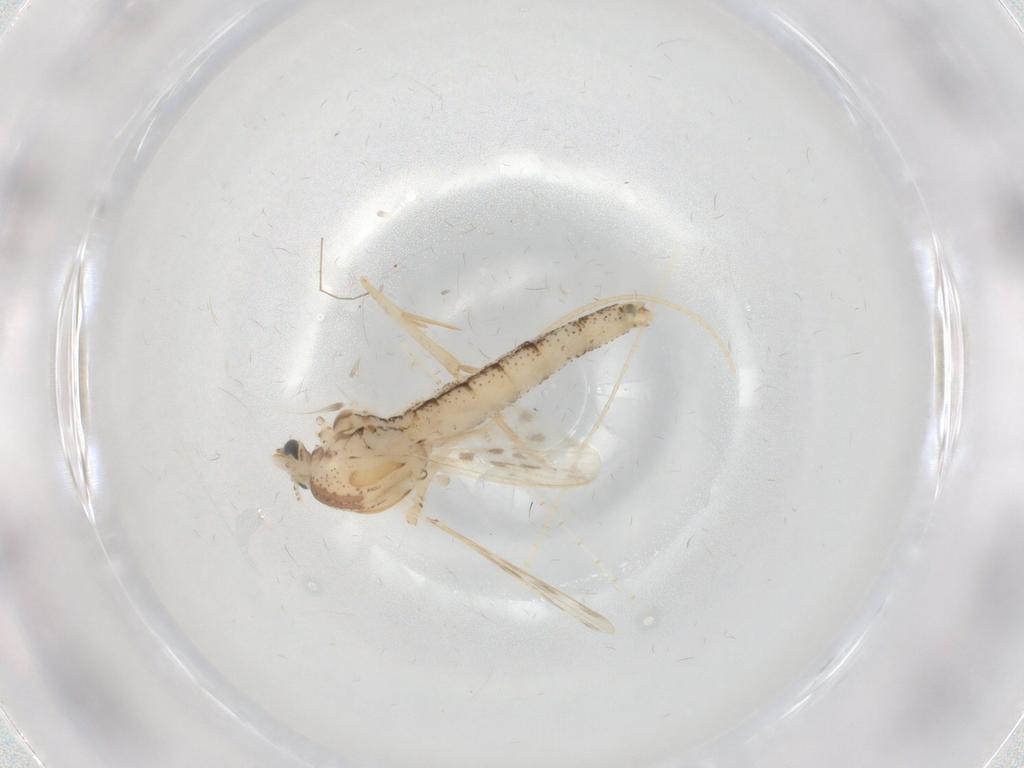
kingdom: Animalia
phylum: Arthropoda
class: Insecta
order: Diptera
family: Chaoboridae
